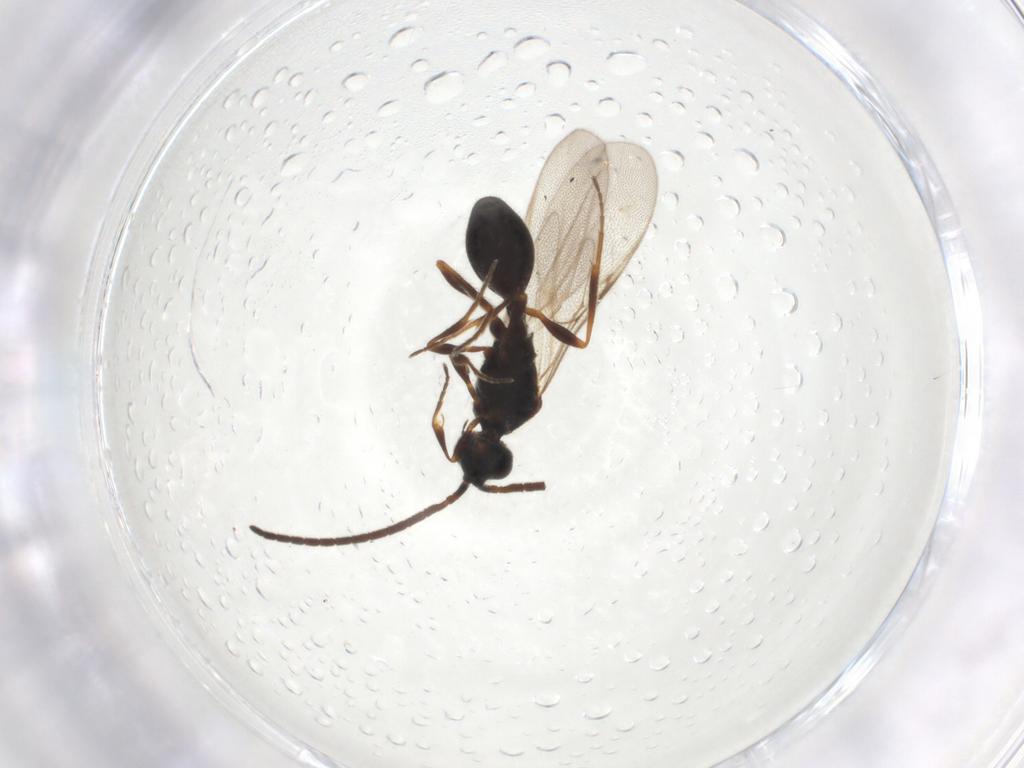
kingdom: Animalia
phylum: Arthropoda
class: Insecta
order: Hymenoptera
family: Diapriidae
